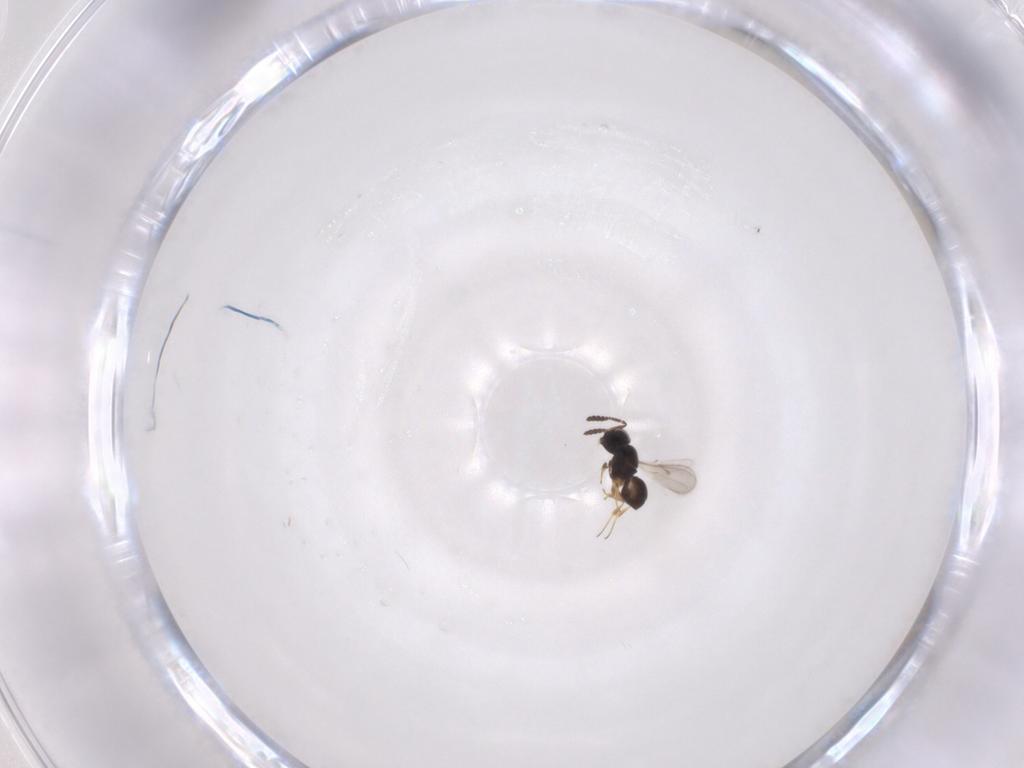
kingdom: Animalia
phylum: Arthropoda
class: Insecta
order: Hymenoptera
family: Scelionidae
